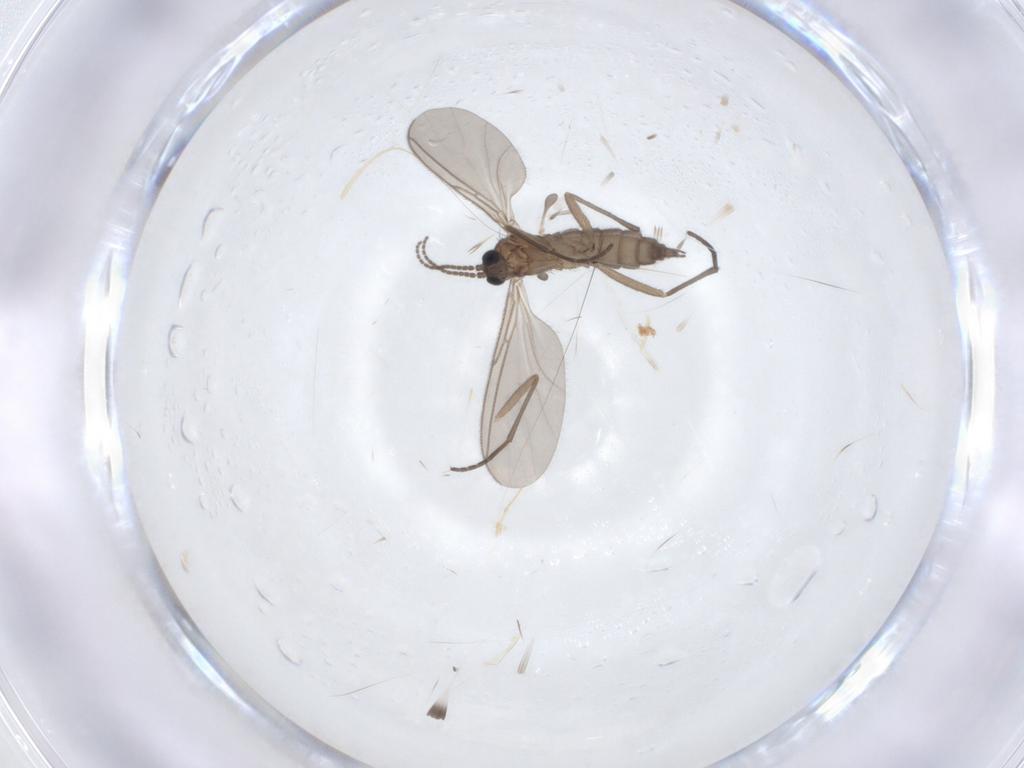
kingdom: Animalia
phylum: Arthropoda
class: Insecta
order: Diptera
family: Sciaridae
